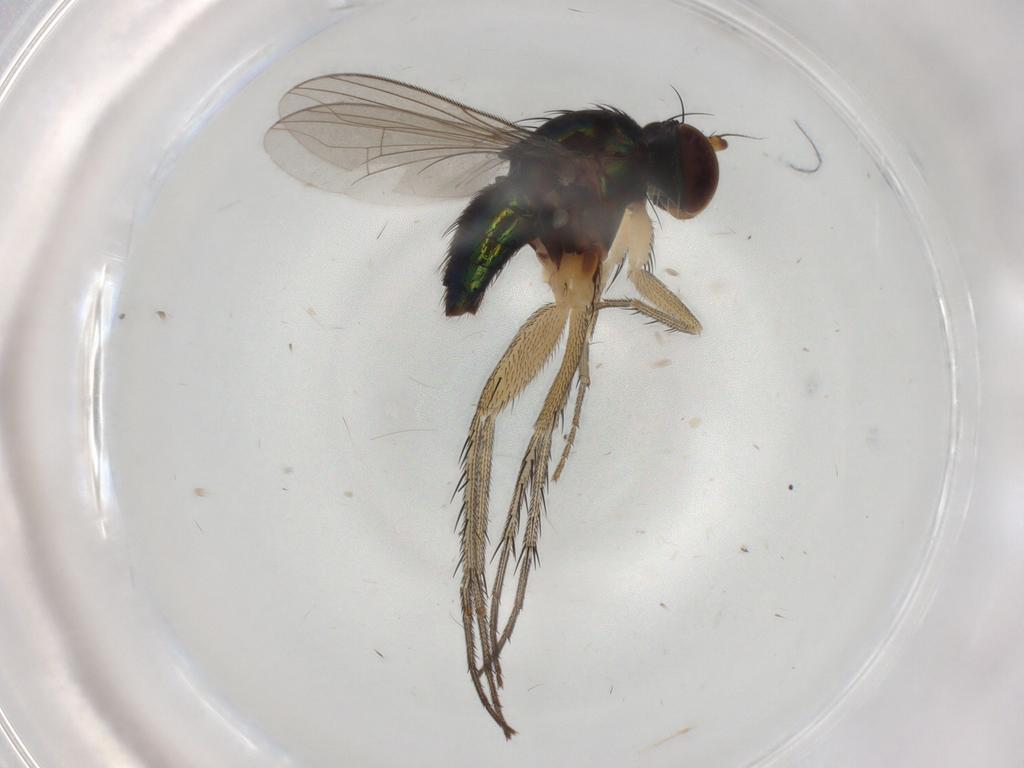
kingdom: Animalia
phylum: Arthropoda
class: Insecta
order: Diptera
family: Dolichopodidae
